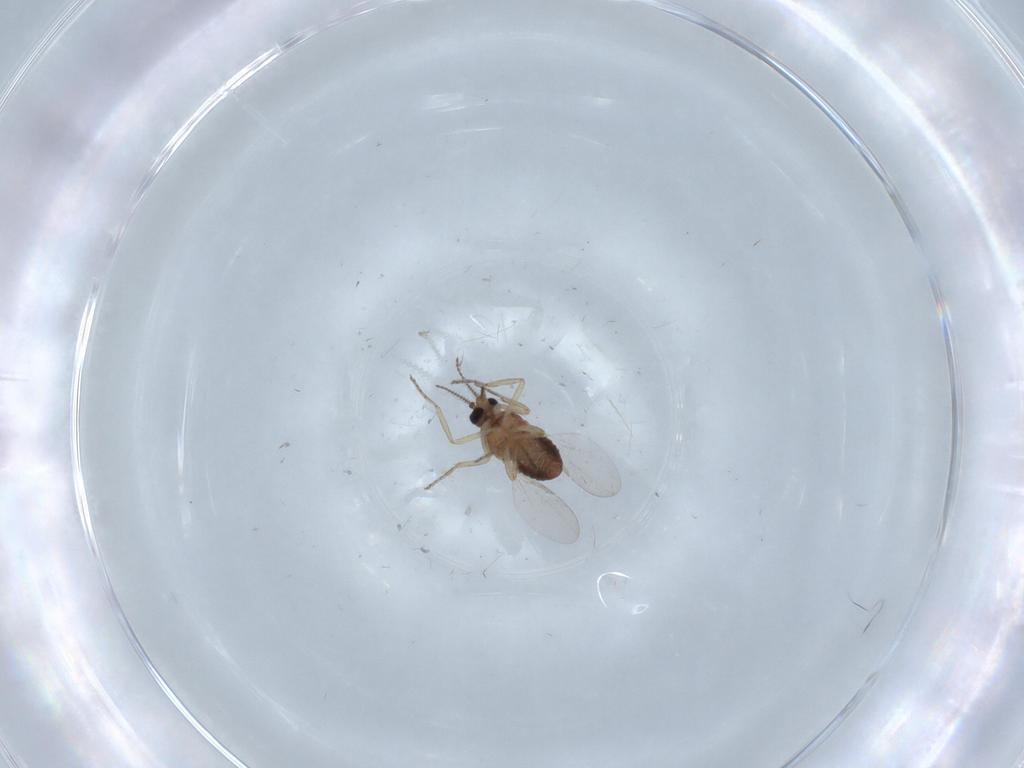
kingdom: Animalia
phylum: Arthropoda
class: Insecta
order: Diptera
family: Ceratopogonidae
